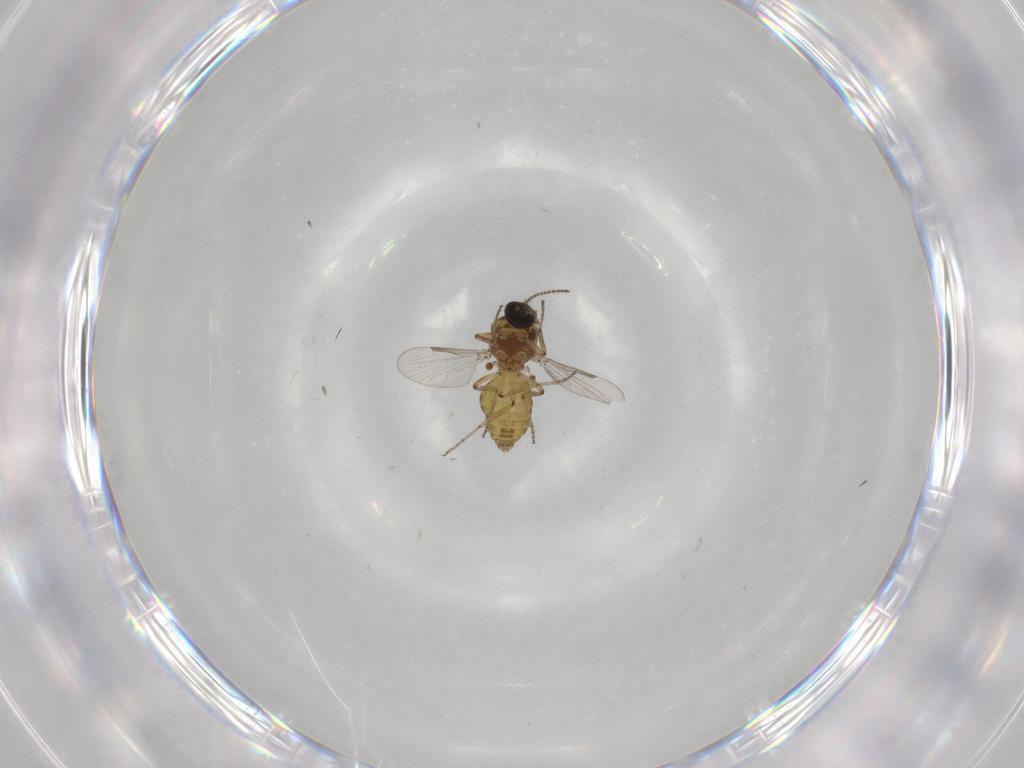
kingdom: Animalia
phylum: Arthropoda
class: Insecta
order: Diptera
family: Ceratopogonidae
